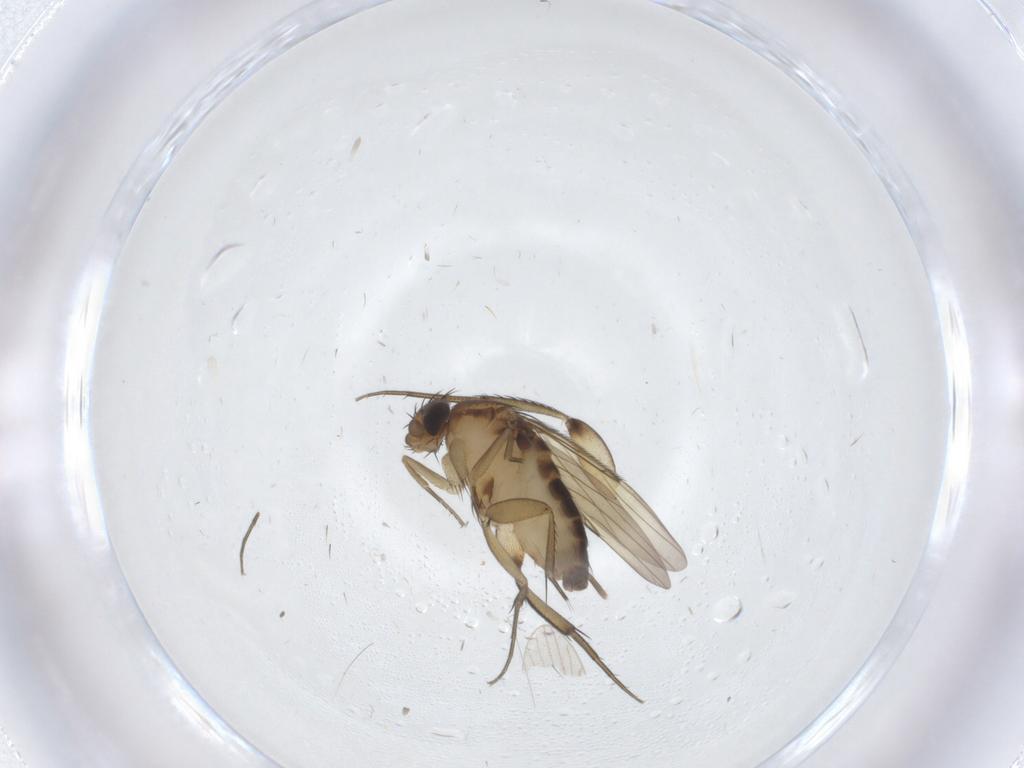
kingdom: Animalia
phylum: Arthropoda
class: Insecta
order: Diptera
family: Phoridae
